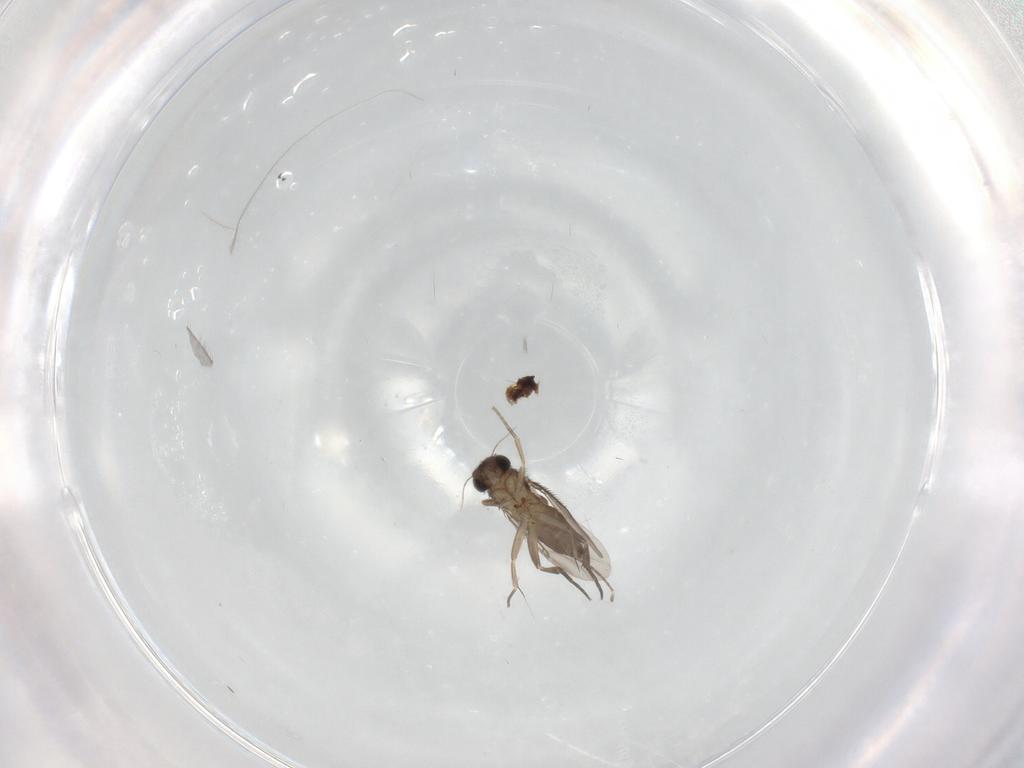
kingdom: Animalia
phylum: Arthropoda
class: Insecta
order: Diptera
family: Phoridae
